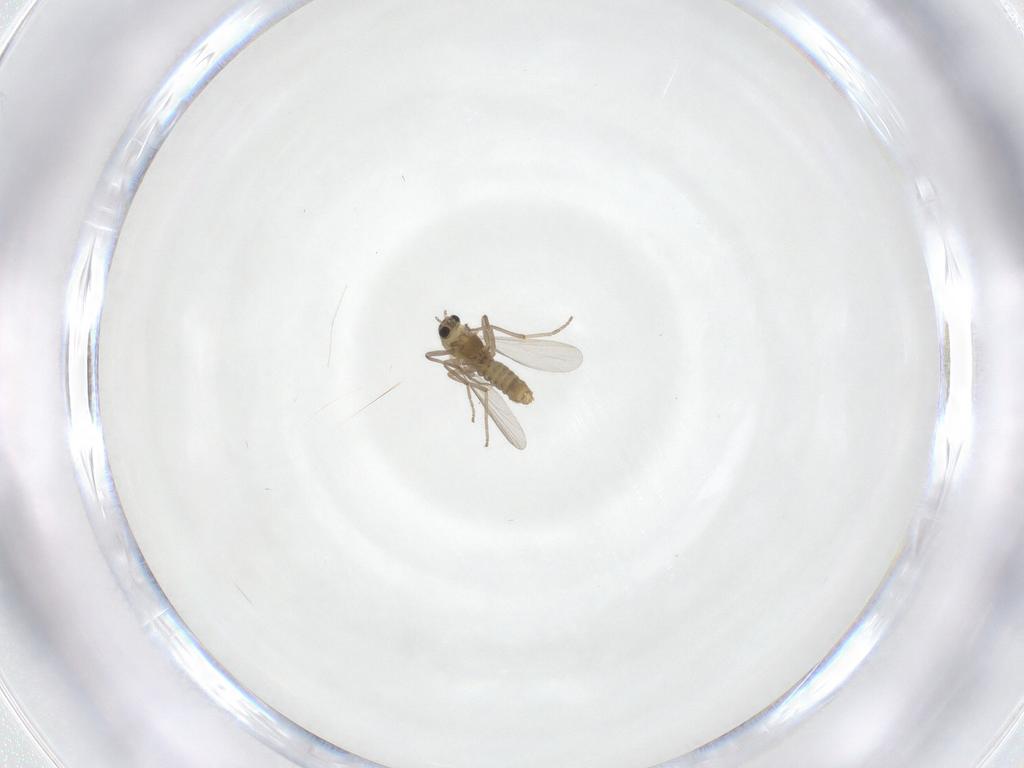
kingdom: Animalia
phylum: Arthropoda
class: Insecta
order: Diptera
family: Chironomidae
